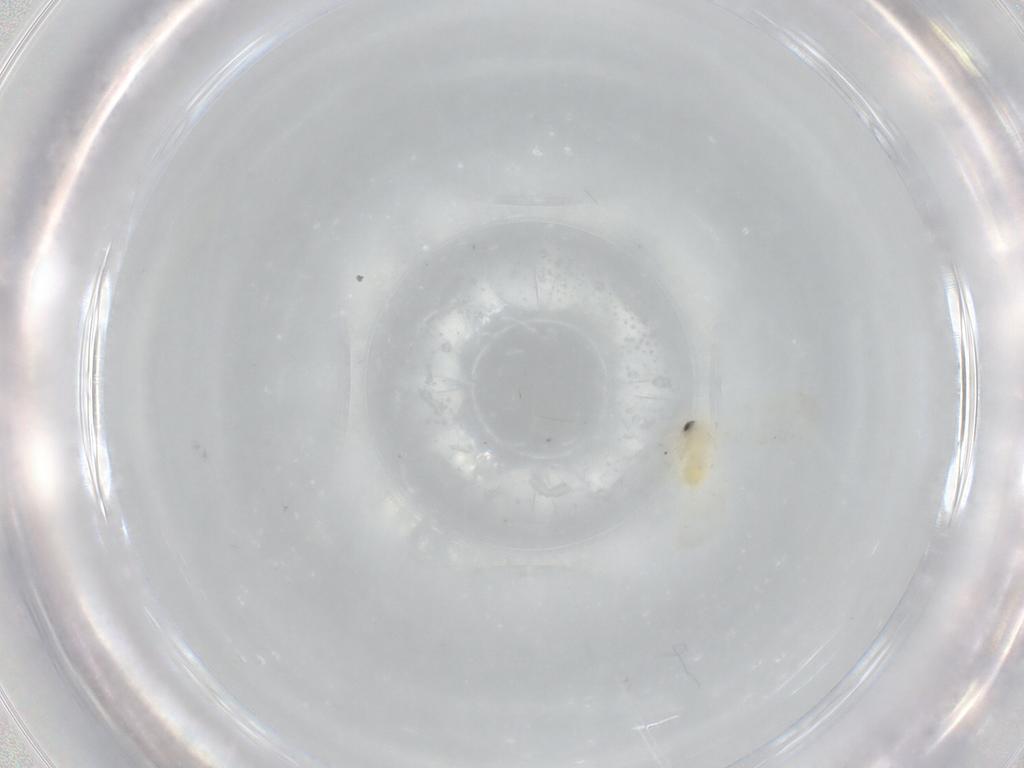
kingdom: Animalia
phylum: Arthropoda
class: Insecta
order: Hemiptera
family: Aleyrodidae
